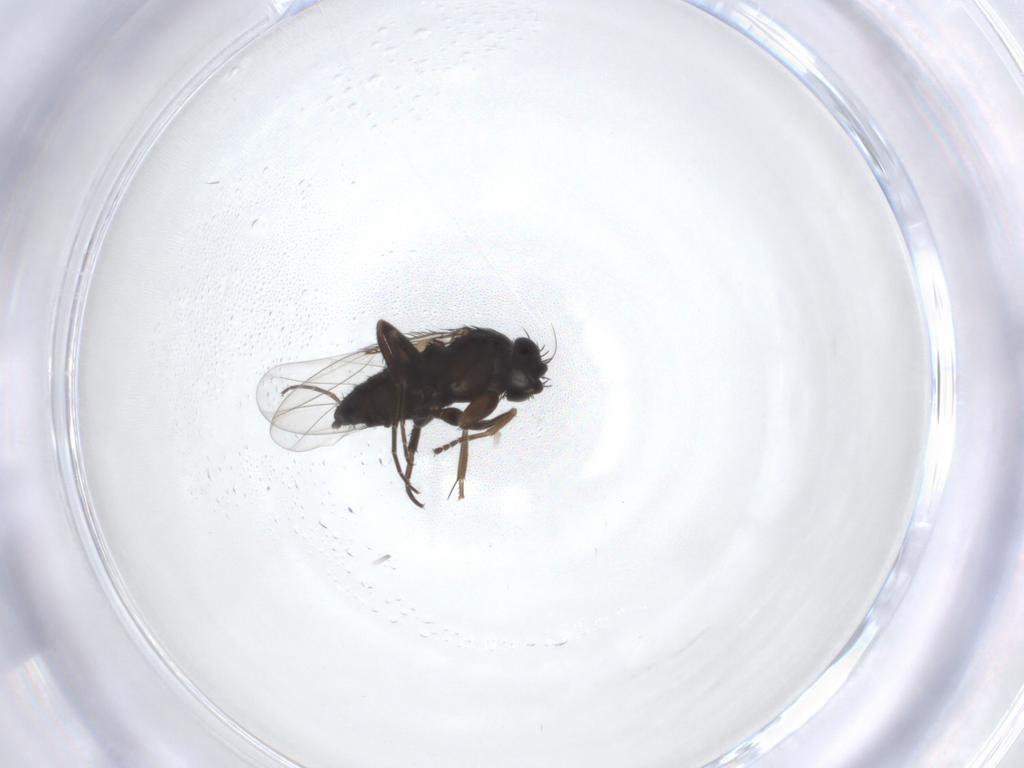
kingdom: Animalia
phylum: Arthropoda
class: Insecta
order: Diptera
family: Phoridae
